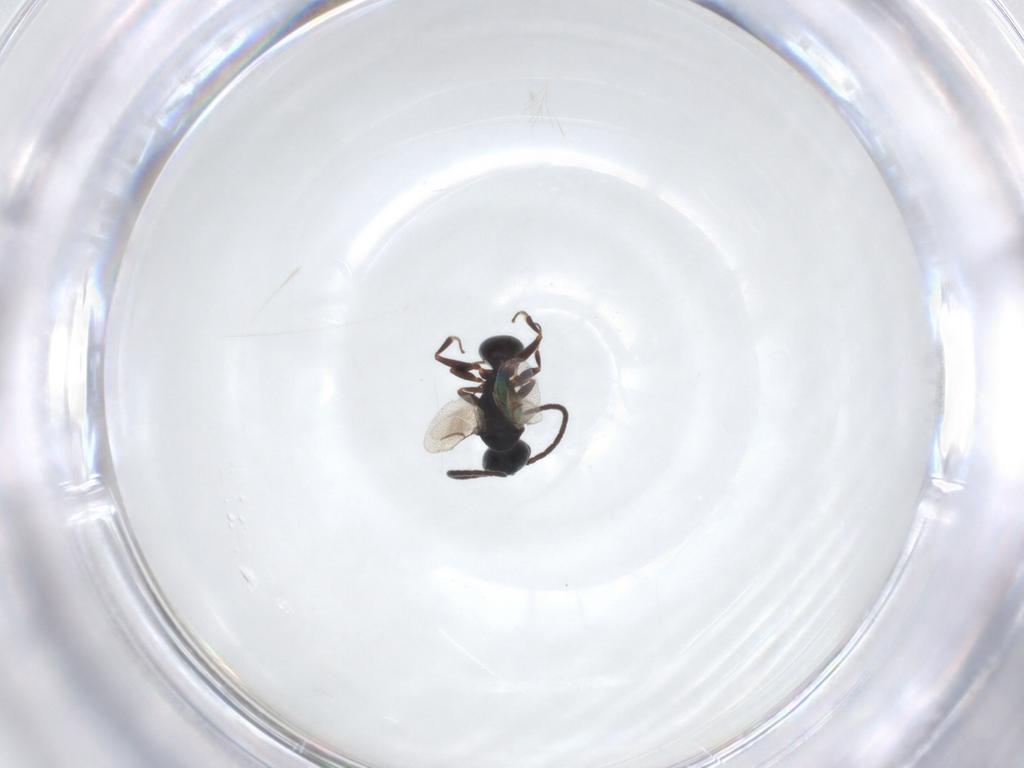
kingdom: Animalia
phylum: Arthropoda
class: Insecta
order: Hymenoptera
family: Bethylidae
